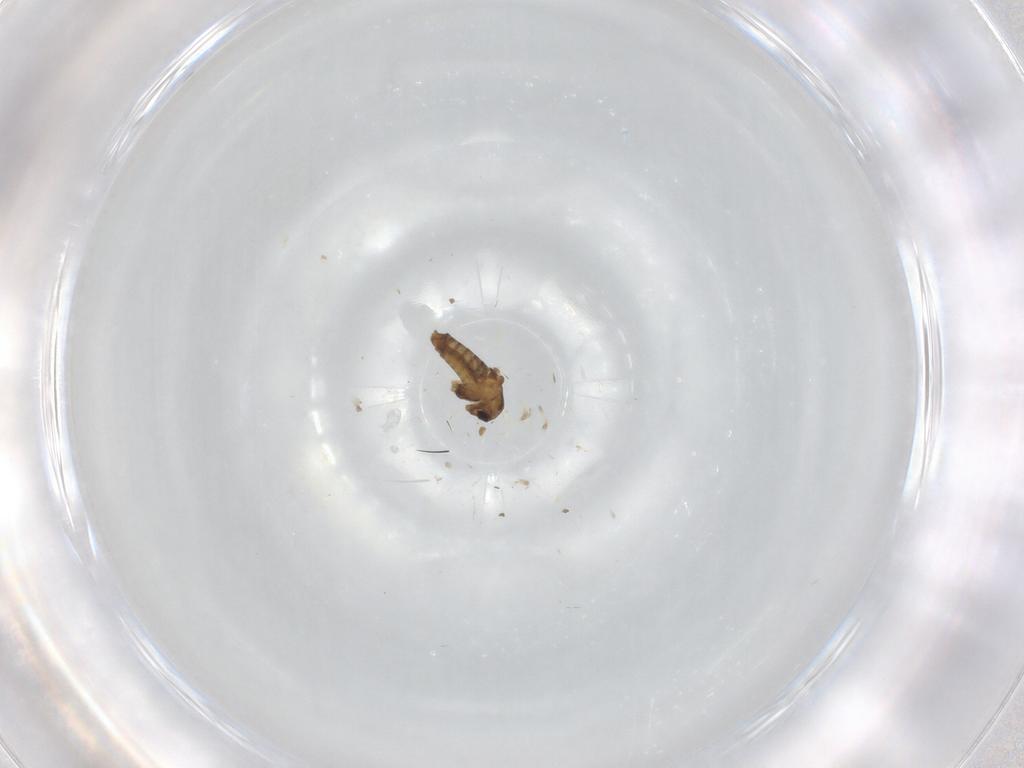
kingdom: Animalia
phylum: Arthropoda
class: Insecta
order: Diptera
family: Chironomidae
